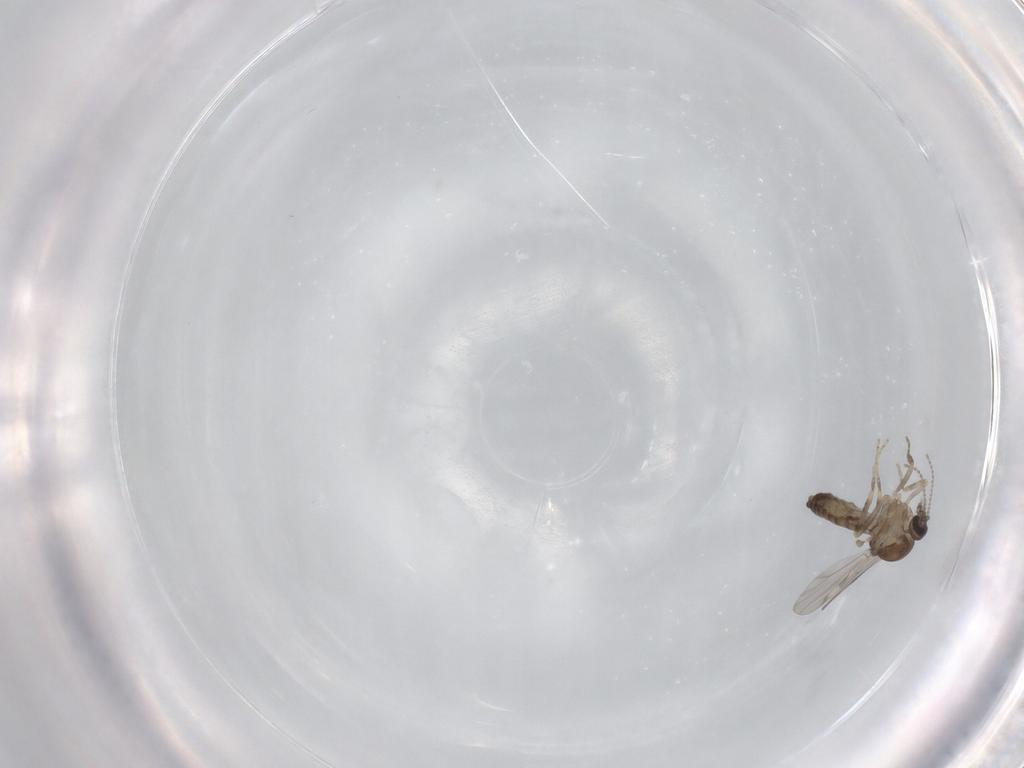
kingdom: Animalia
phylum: Arthropoda
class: Insecta
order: Diptera
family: Ceratopogonidae
